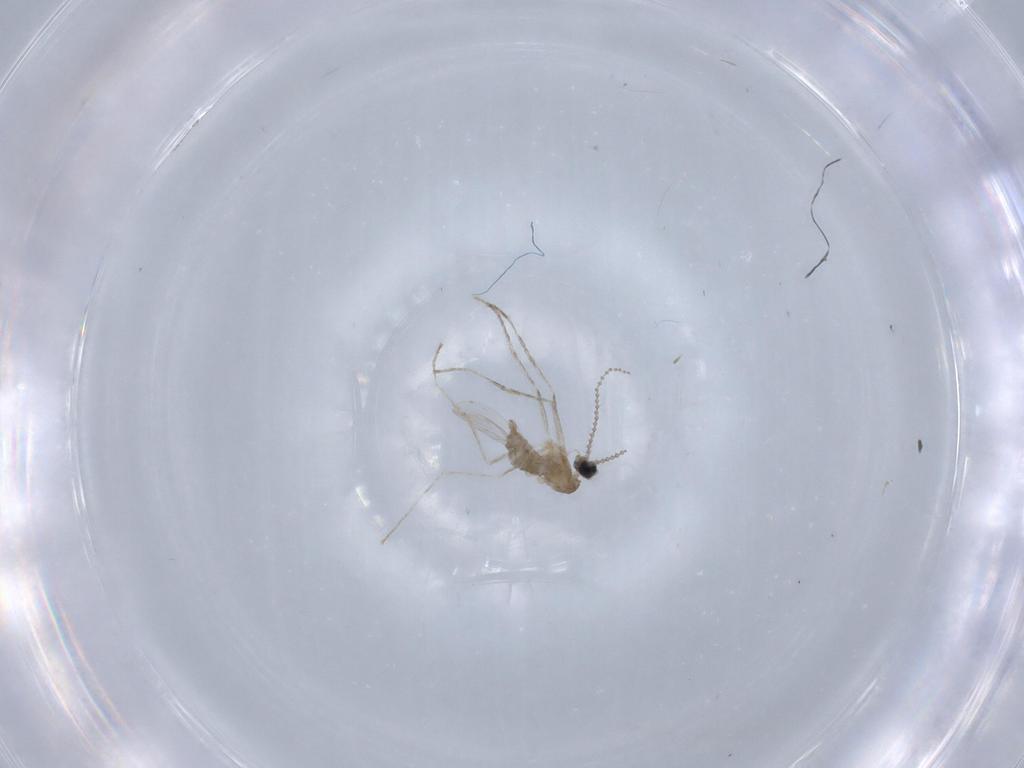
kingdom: Animalia
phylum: Arthropoda
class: Insecta
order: Diptera
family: Cecidomyiidae
